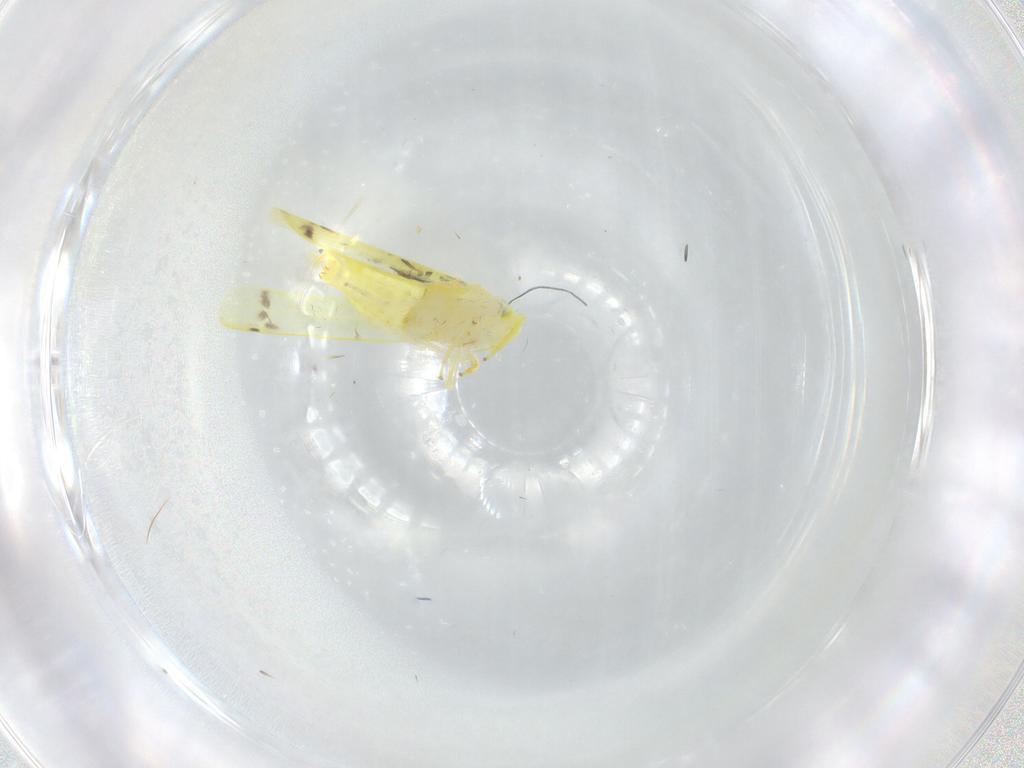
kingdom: Animalia
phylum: Arthropoda
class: Insecta
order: Hemiptera
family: Cicadellidae
